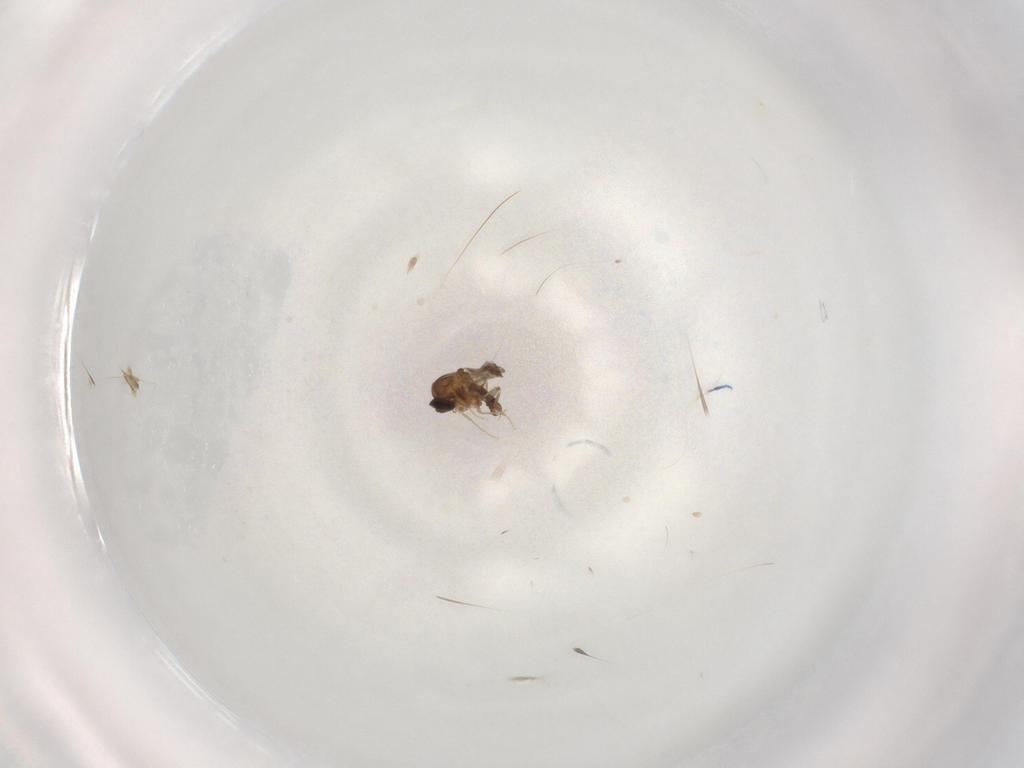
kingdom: Animalia
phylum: Arthropoda
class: Insecta
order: Diptera
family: Ceratopogonidae
